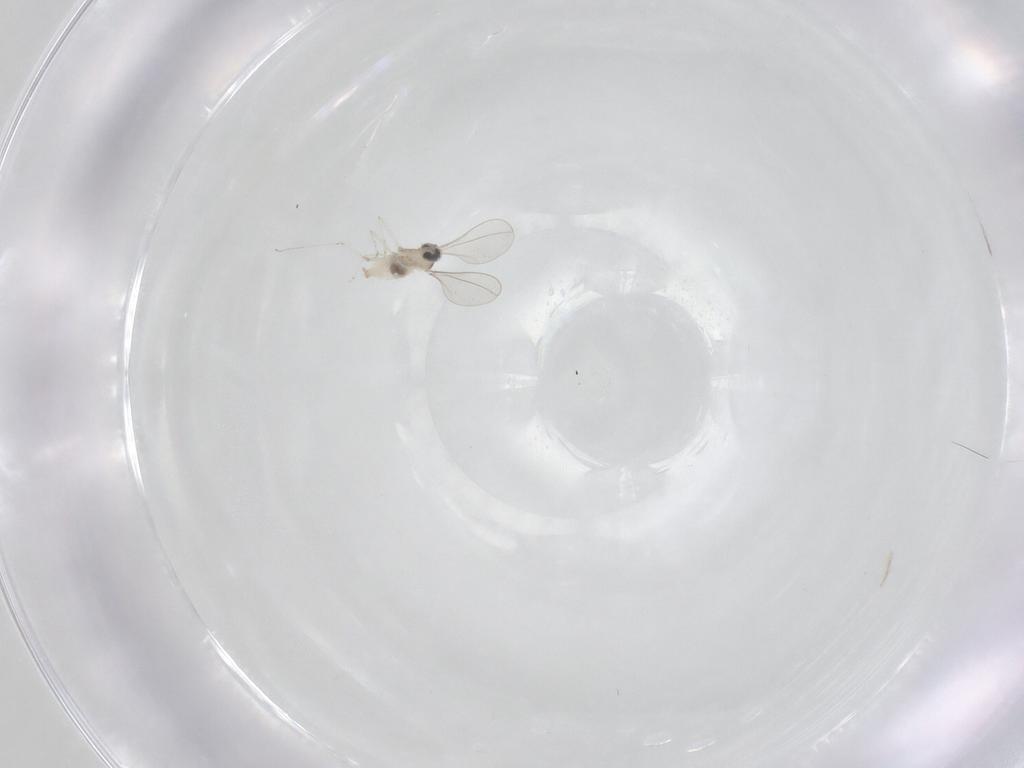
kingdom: Animalia
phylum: Arthropoda
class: Insecta
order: Diptera
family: Cecidomyiidae
